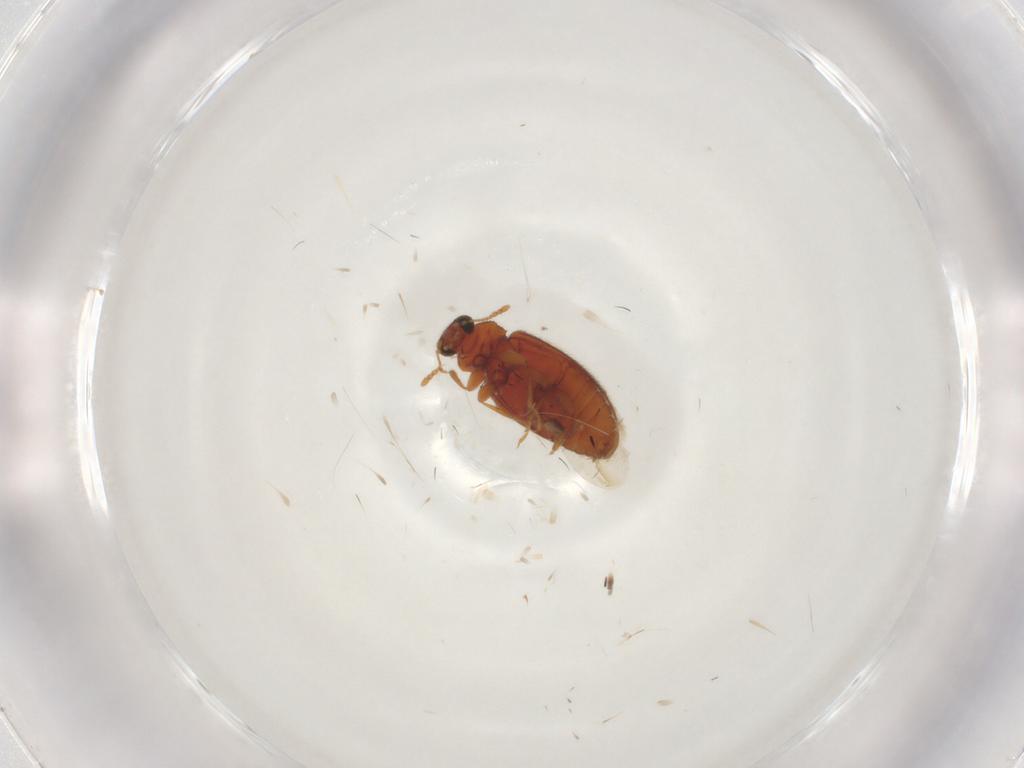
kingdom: Animalia
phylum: Arthropoda
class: Insecta
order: Coleoptera
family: Latridiidae
